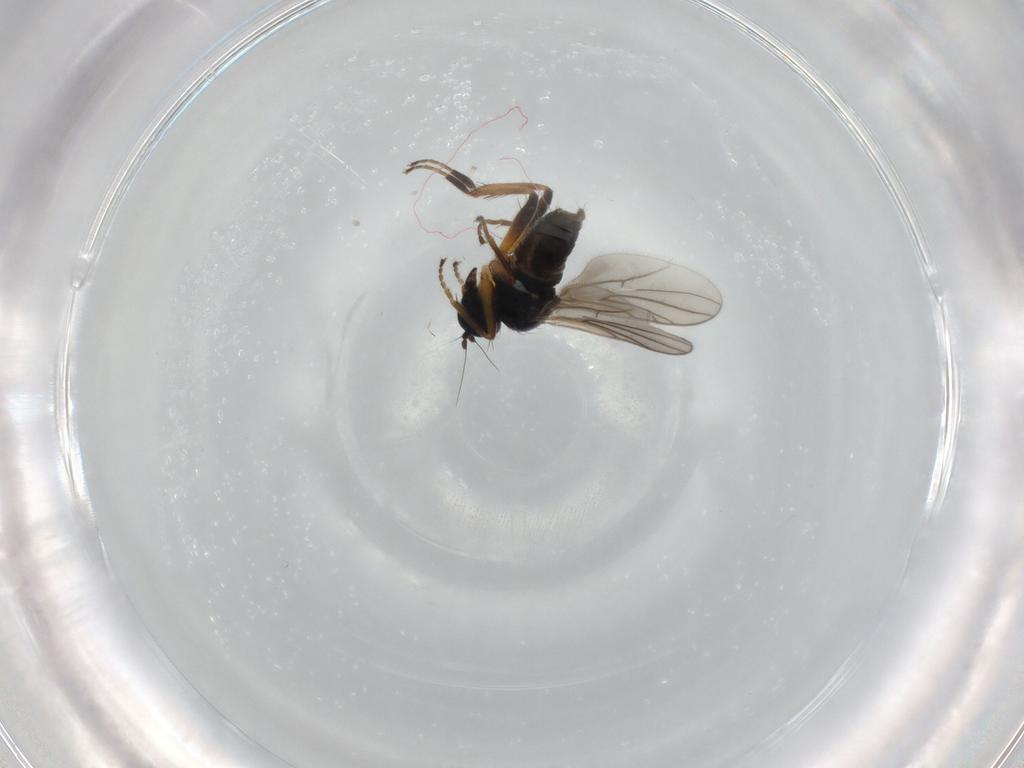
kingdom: Animalia
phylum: Arthropoda
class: Insecta
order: Diptera
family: Hybotidae
